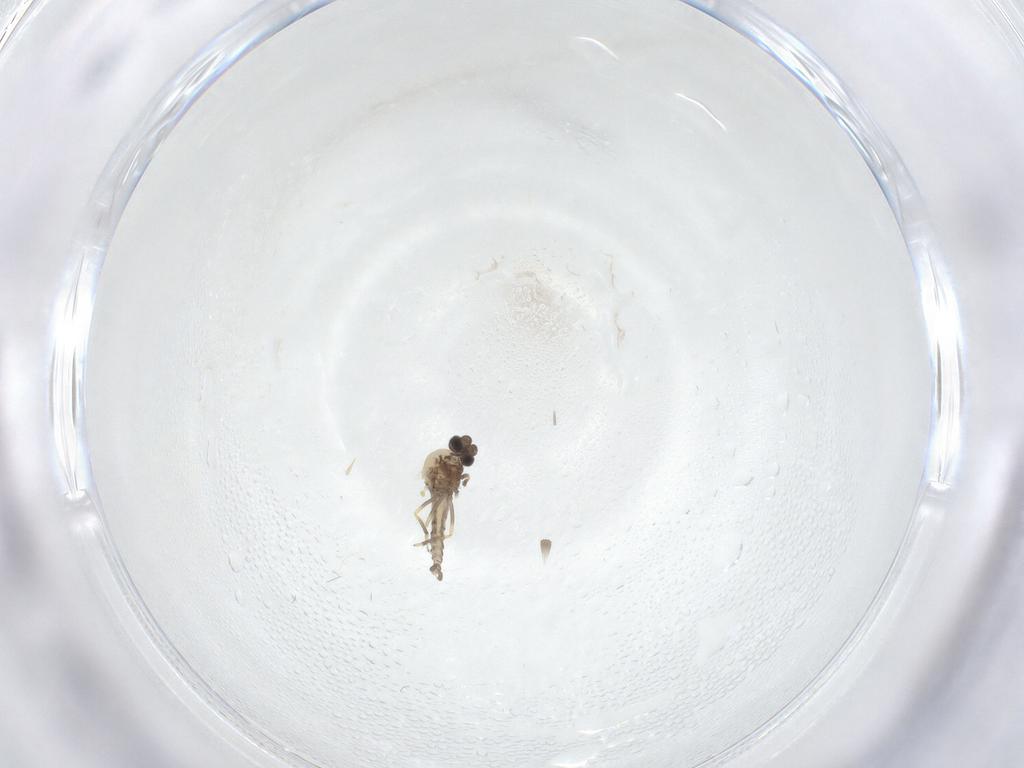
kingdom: Animalia
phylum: Arthropoda
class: Insecta
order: Diptera
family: Ceratopogonidae
